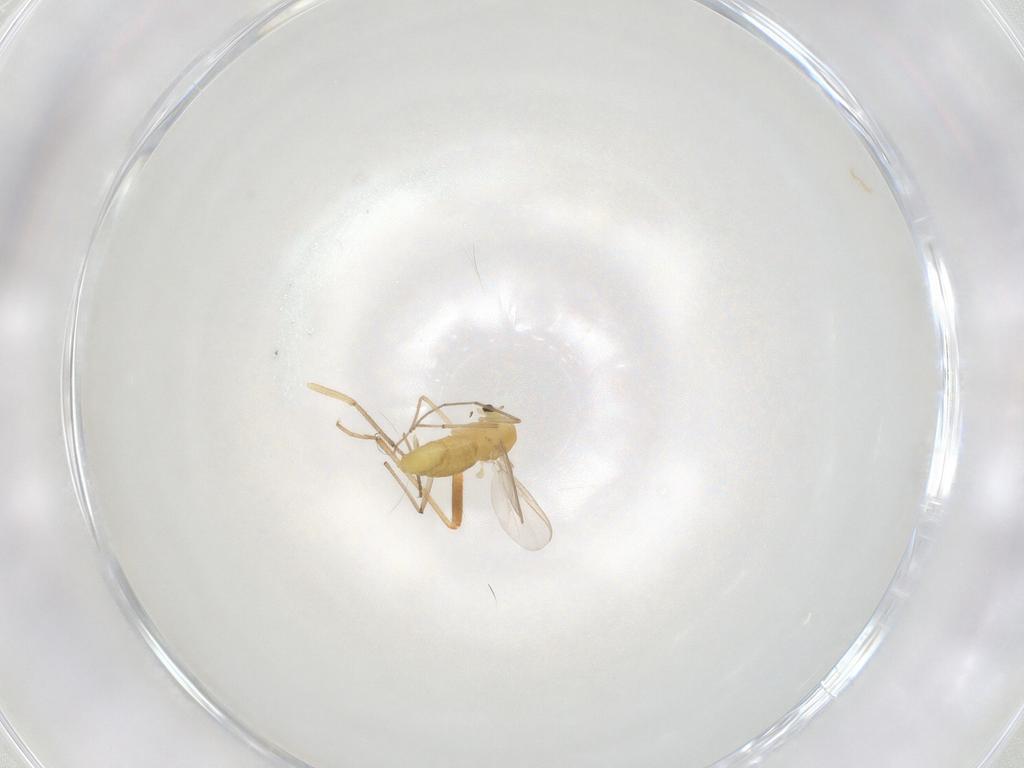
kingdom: Animalia
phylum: Arthropoda
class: Insecta
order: Diptera
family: Chironomidae
